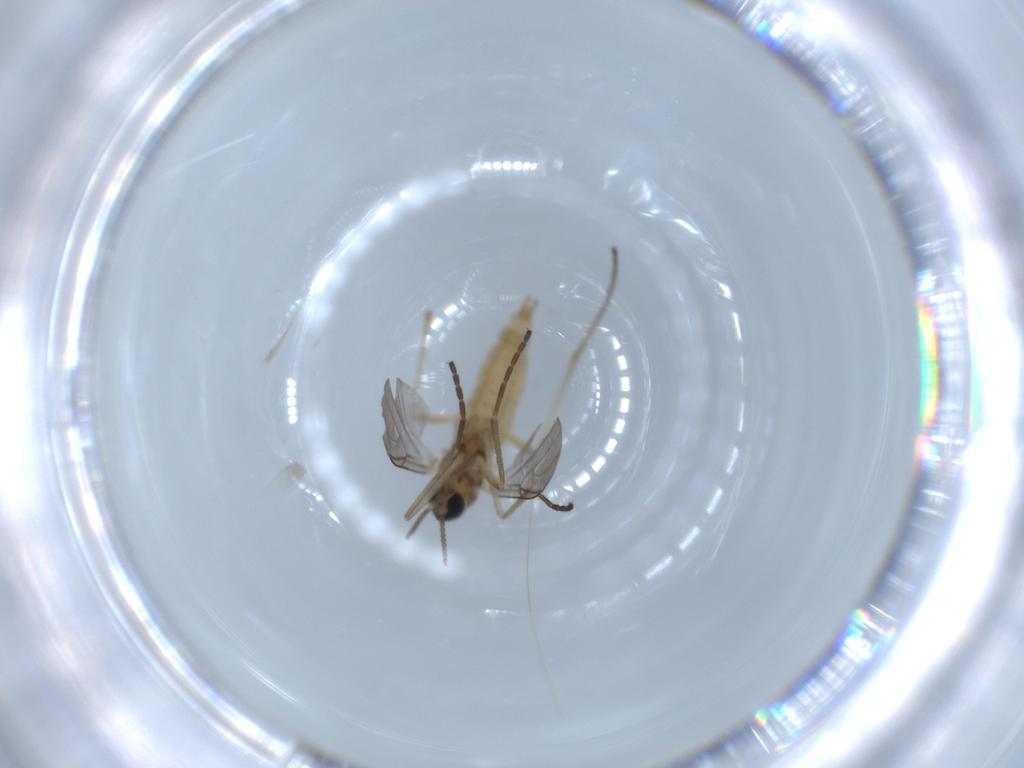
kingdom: Animalia
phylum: Arthropoda
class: Insecta
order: Diptera
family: Cecidomyiidae
